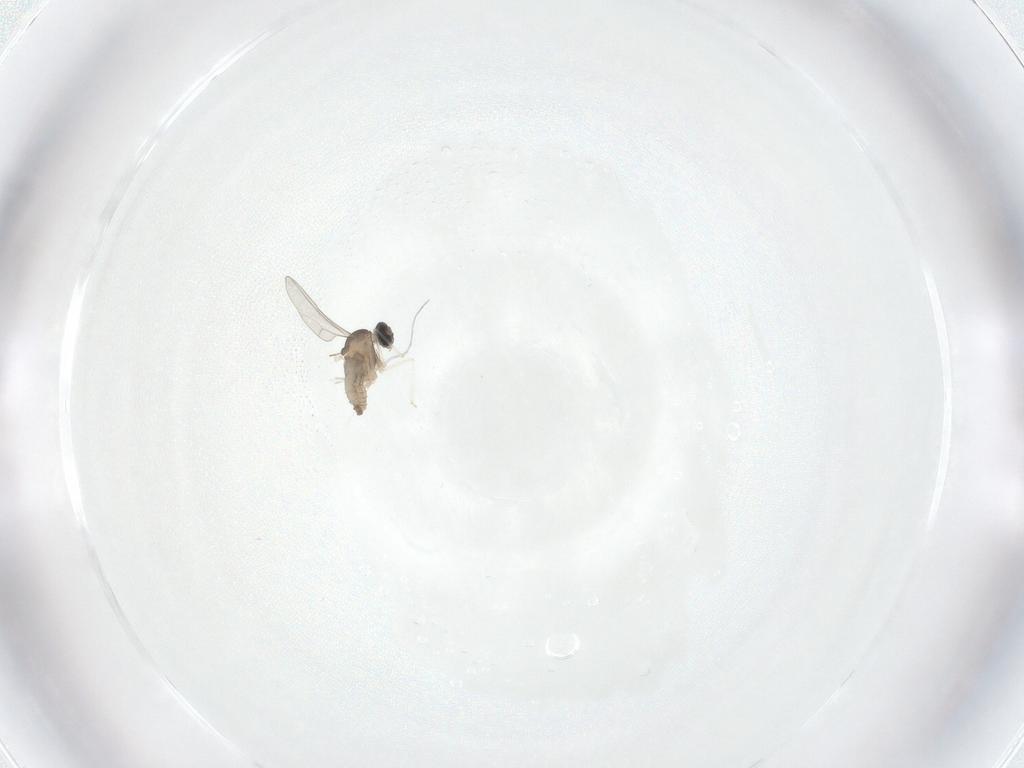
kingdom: Animalia
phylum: Arthropoda
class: Insecta
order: Diptera
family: Cecidomyiidae
